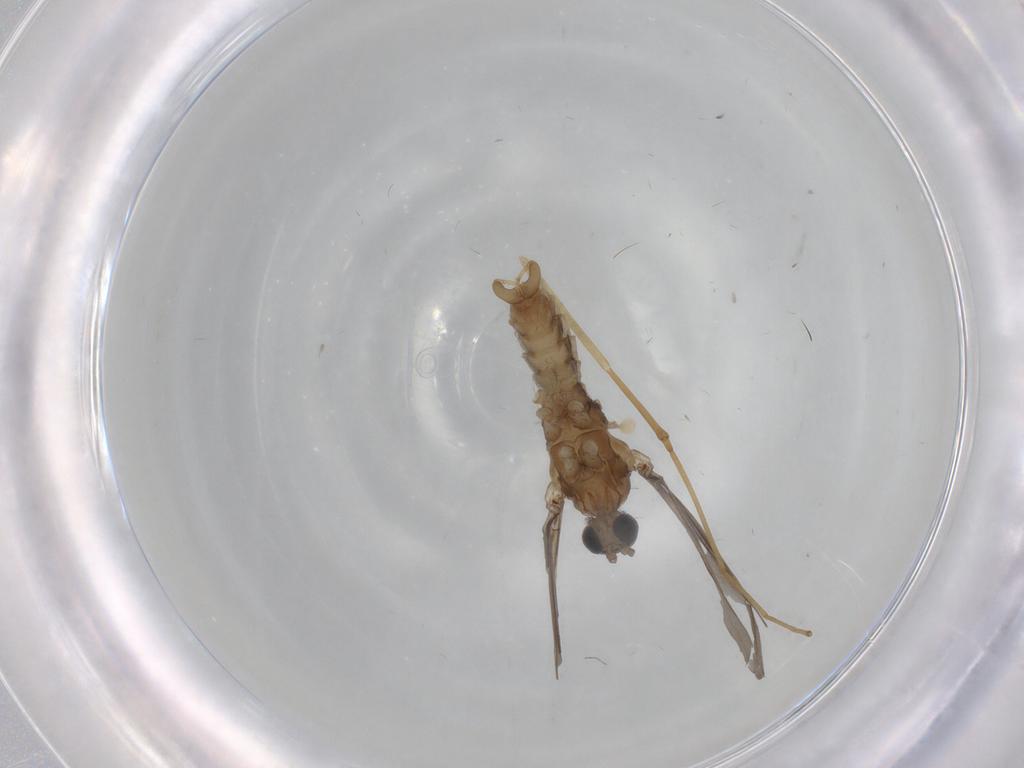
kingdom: Animalia
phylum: Arthropoda
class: Insecta
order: Diptera
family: Cecidomyiidae
